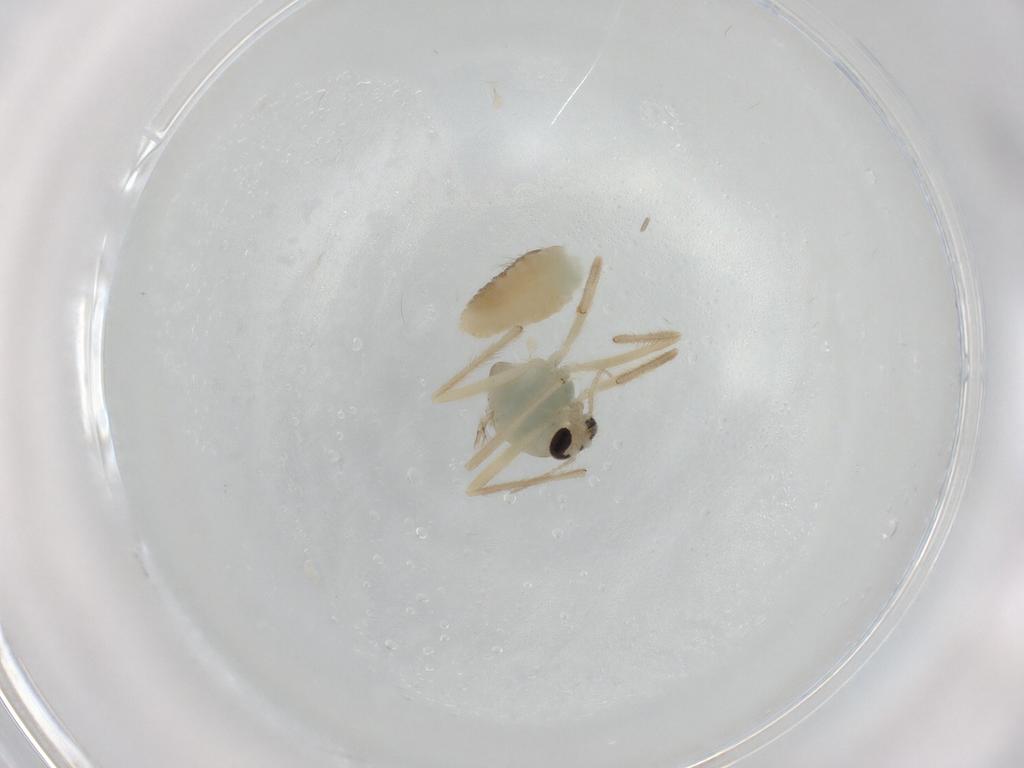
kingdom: Animalia
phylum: Arthropoda
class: Insecta
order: Diptera
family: Chironomidae
